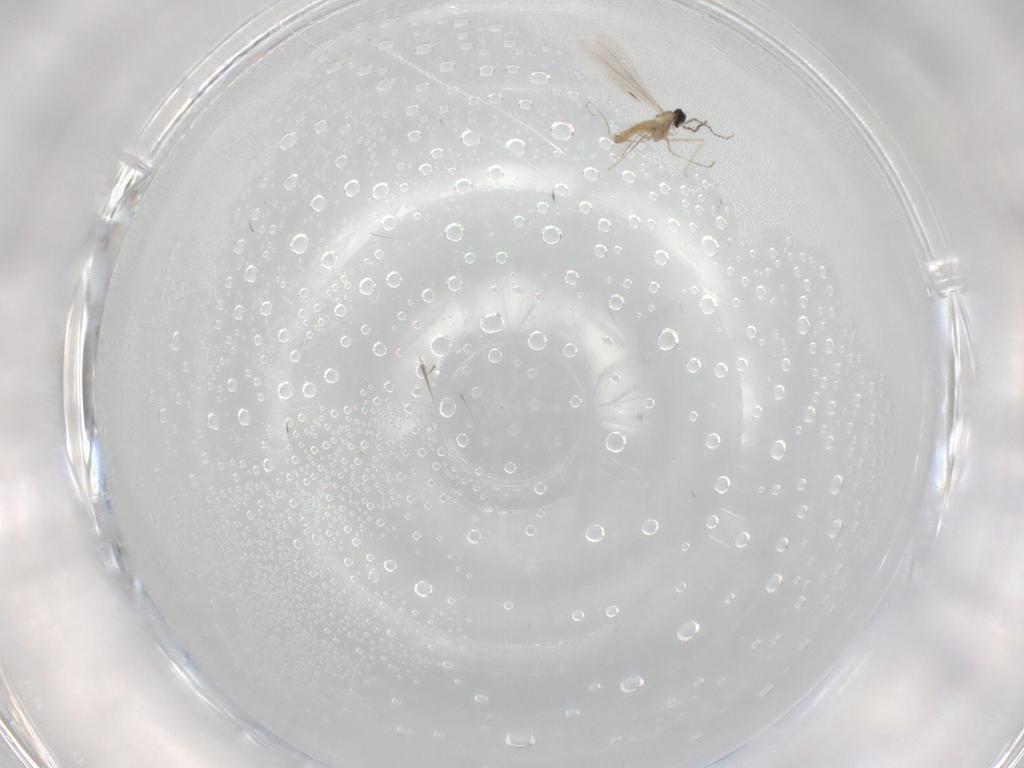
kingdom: Animalia
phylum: Arthropoda
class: Insecta
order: Diptera
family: Cecidomyiidae
